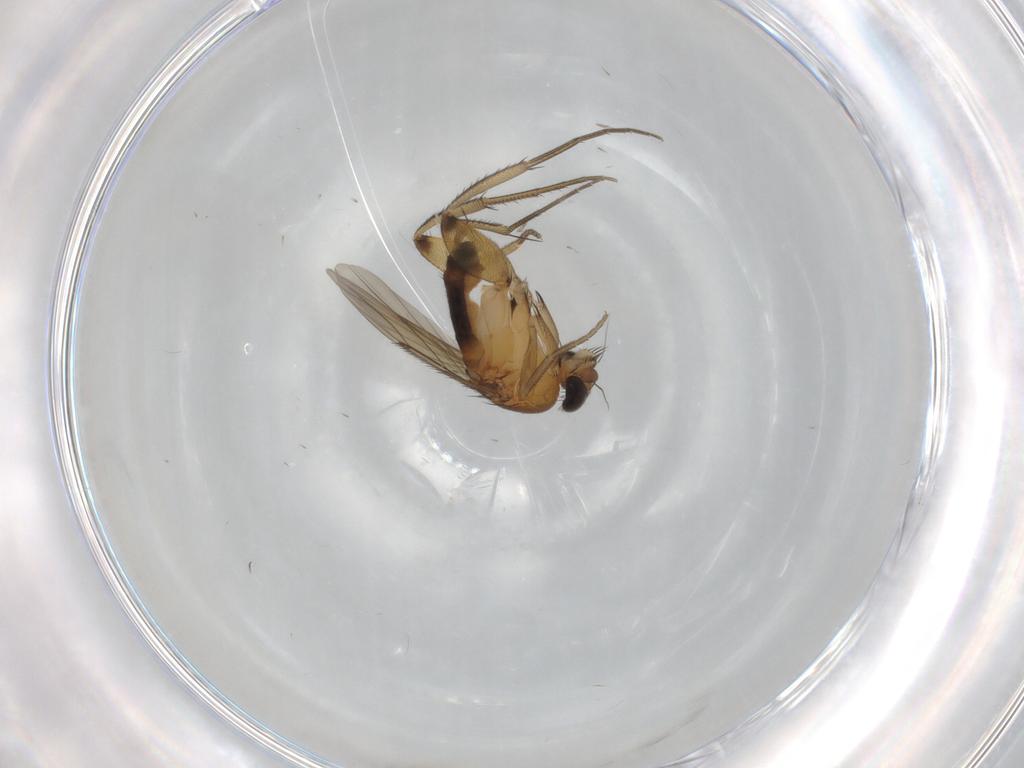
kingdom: Animalia
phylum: Arthropoda
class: Insecta
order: Diptera
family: Phoridae
